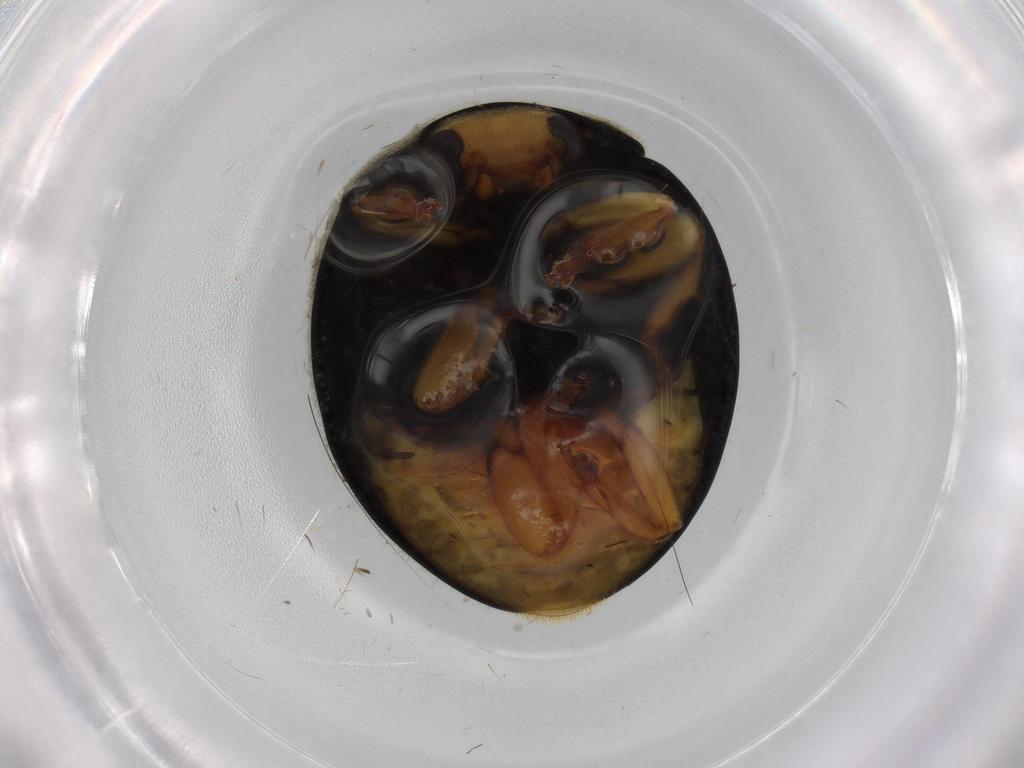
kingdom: Animalia
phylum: Arthropoda
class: Insecta
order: Coleoptera
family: Coccinellidae
